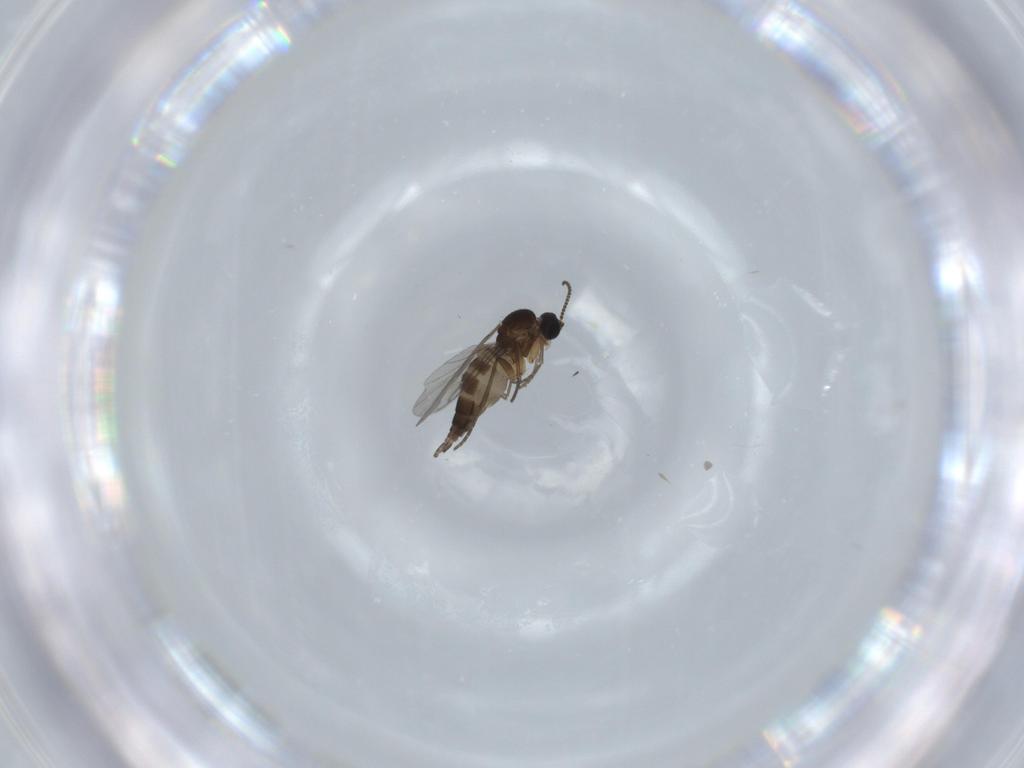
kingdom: Animalia
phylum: Arthropoda
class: Insecta
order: Diptera
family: Sciaridae
